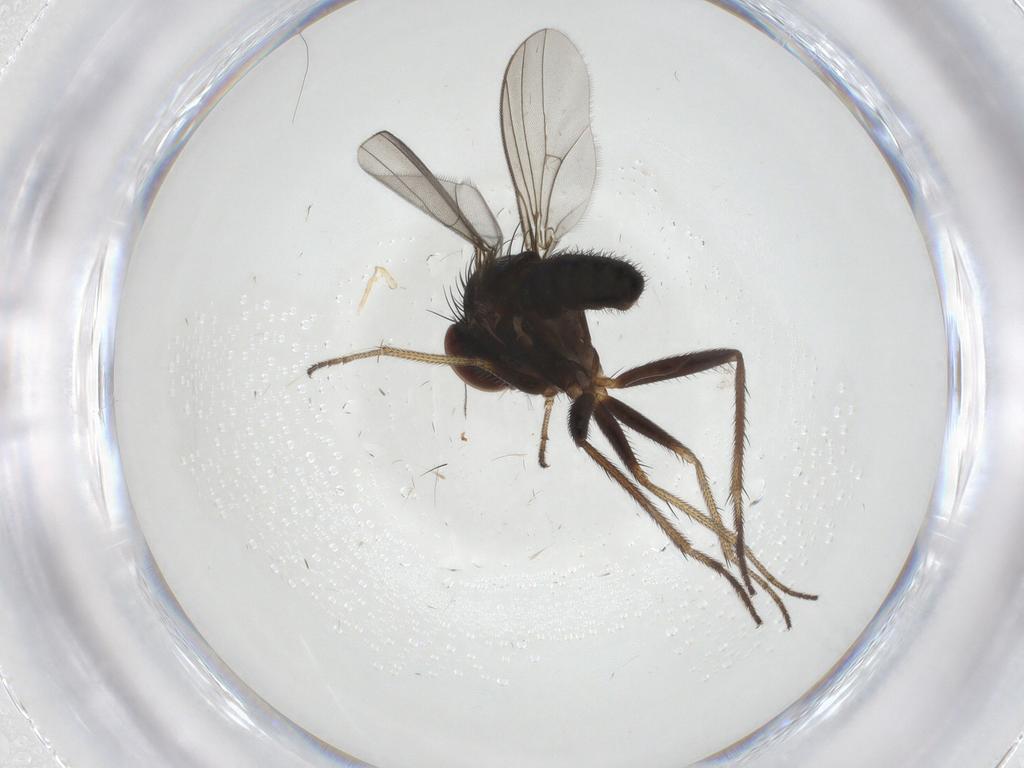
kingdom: Animalia
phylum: Arthropoda
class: Insecta
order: Diptera
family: Dolichopodidae
